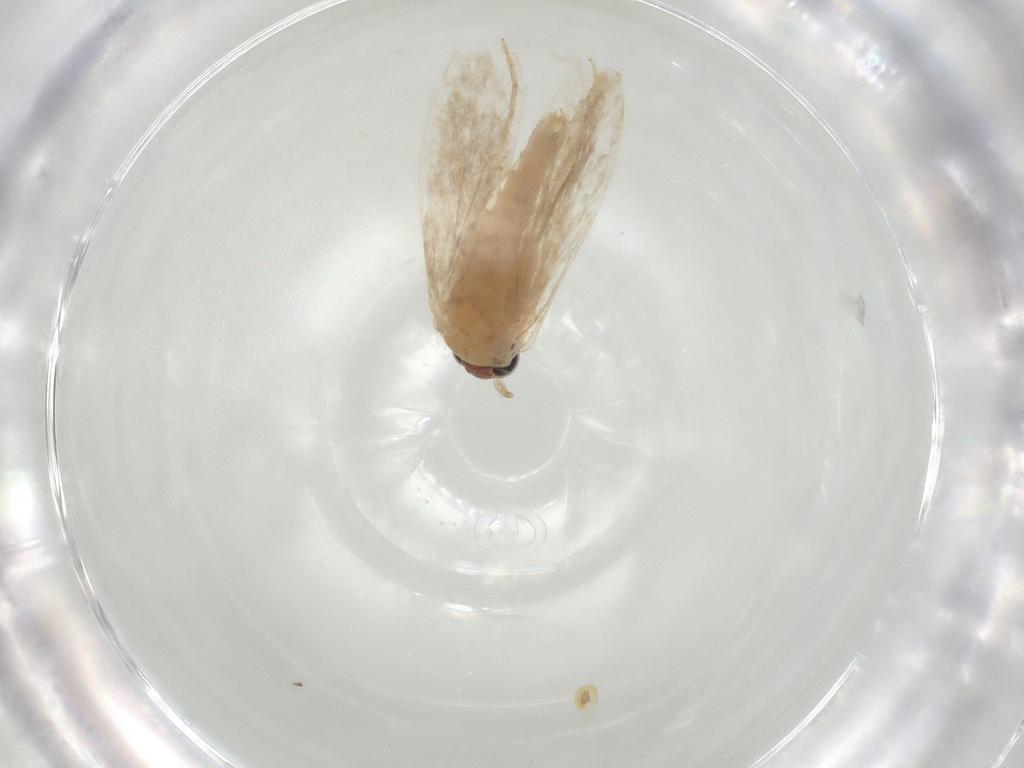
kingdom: Animalia
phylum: Arthropoda
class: Insecta
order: Lepidoptera
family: Nepticulidae
